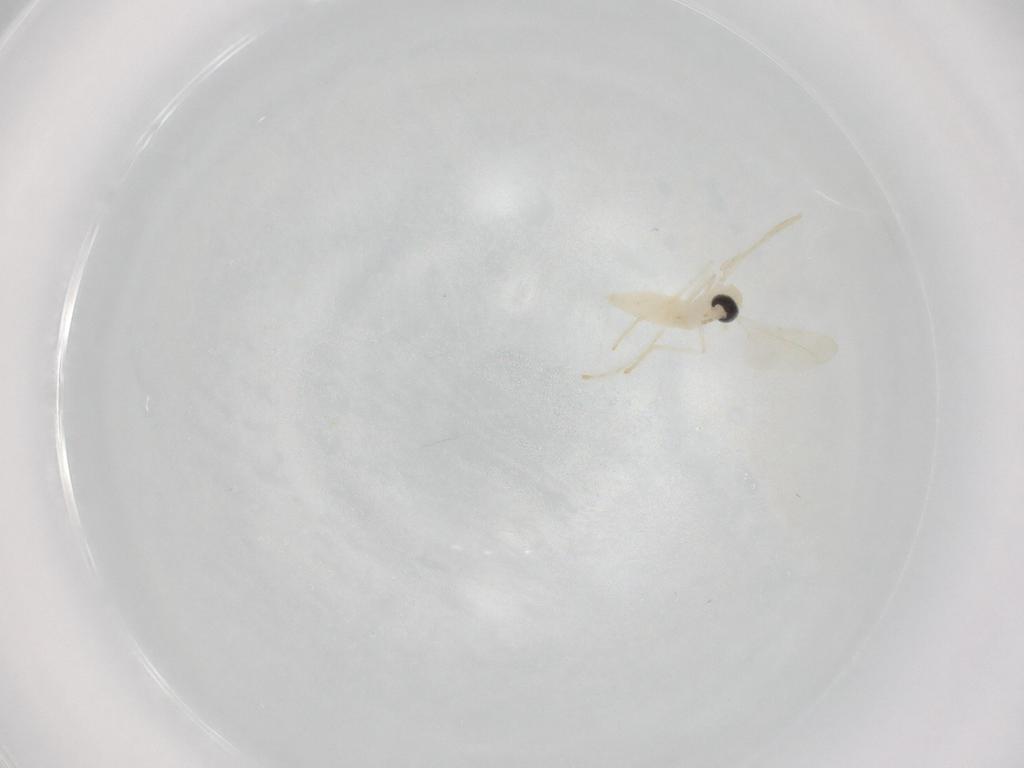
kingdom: Animalia
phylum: Arthropoda
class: Insecta
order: Diptera
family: Cecidomyiidae
